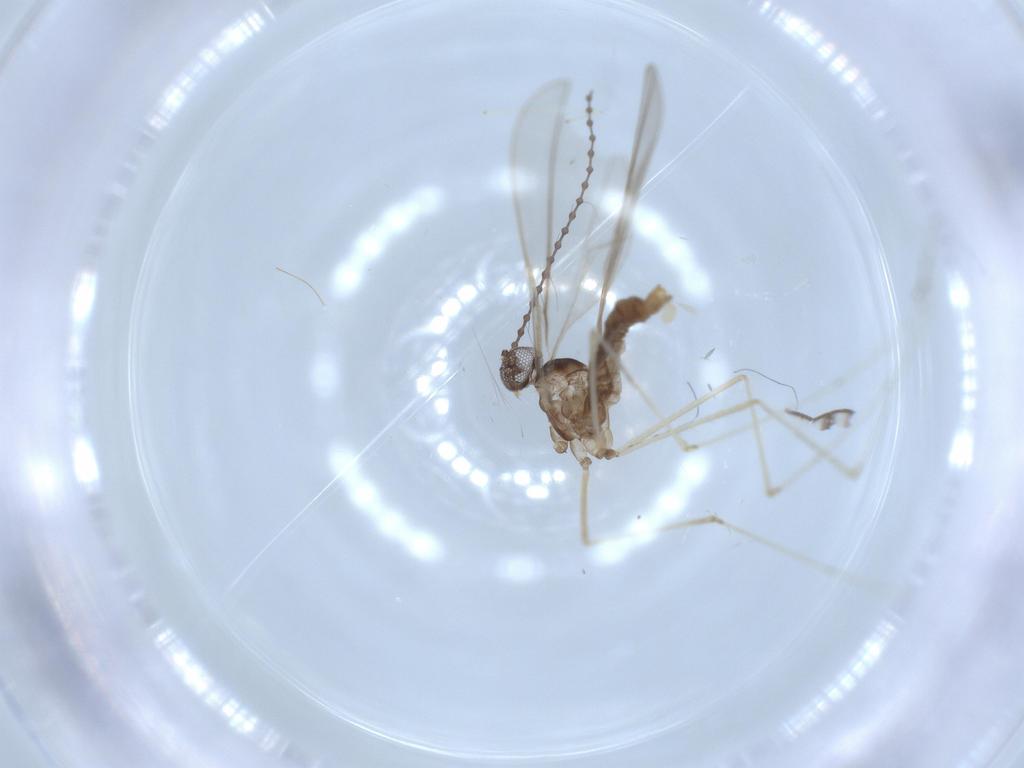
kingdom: Animalia
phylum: Arthropoda
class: Insecta
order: Diptera
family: Cecidomyiidae
